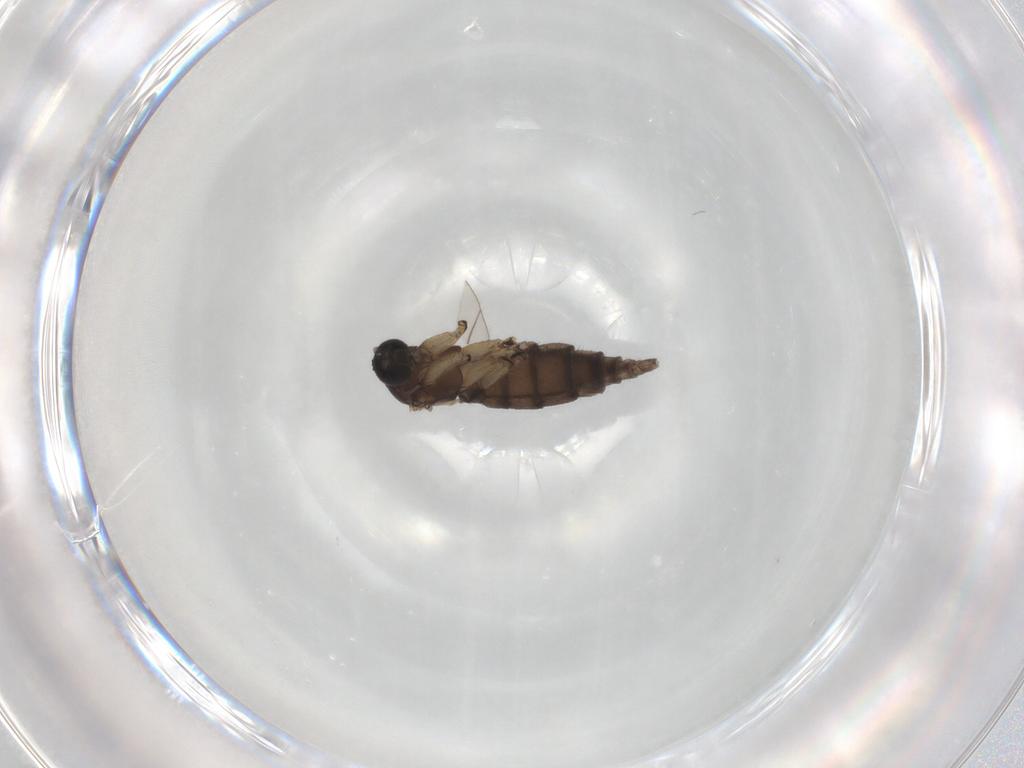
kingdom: Animalia
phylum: Arthropoda
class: Insecta
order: Diptera
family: Sciaridae
